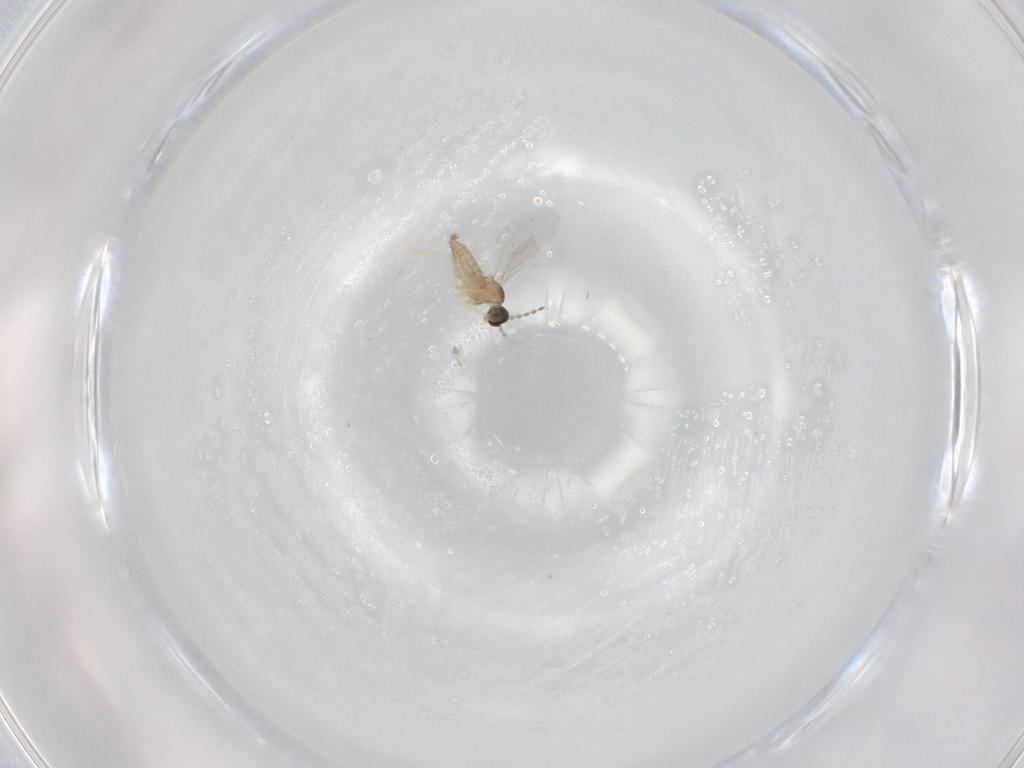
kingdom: Animalia
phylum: Arthropoda
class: Insecta
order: Diptera
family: Cecidomyiidae
